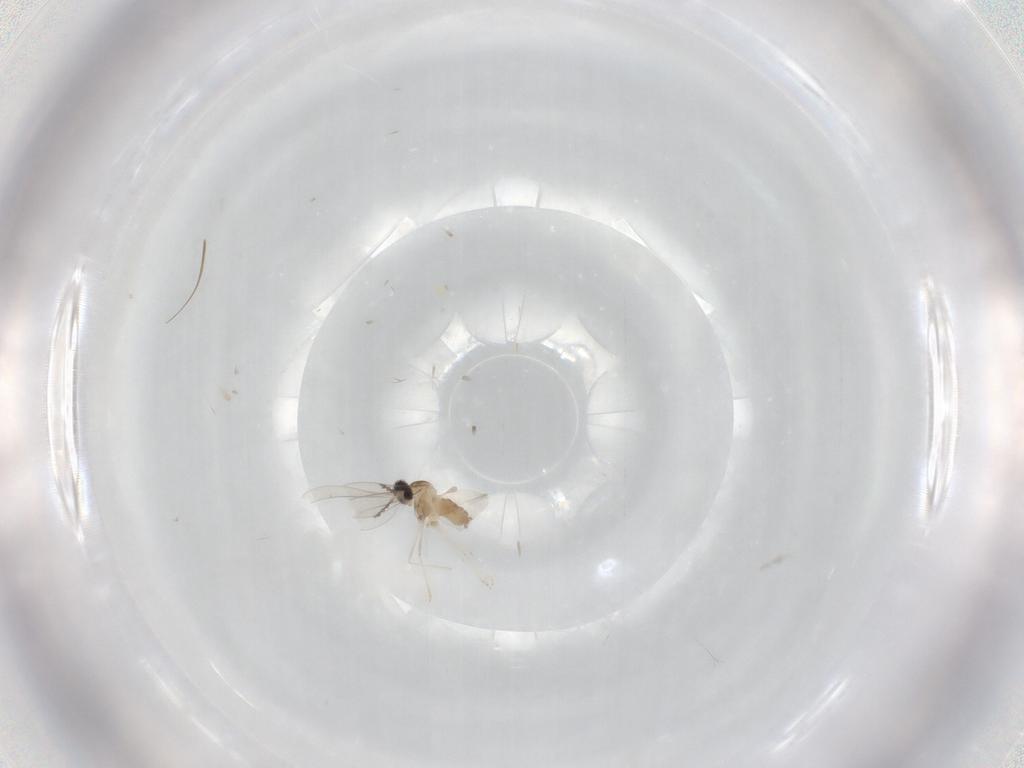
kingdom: Animalia
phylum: Arthropoda
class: Insecta
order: Diptera
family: Cecidomyiidae
